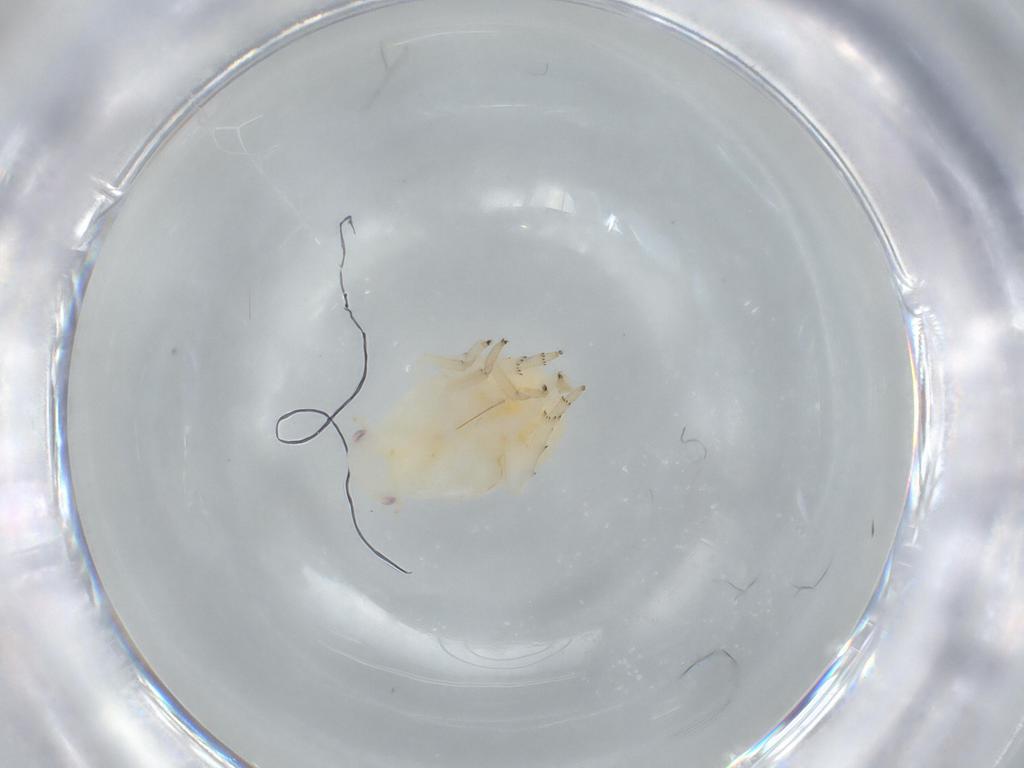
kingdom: Animalia
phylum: Arthropoda
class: Insecta
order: Hemiptera
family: Flatidae
